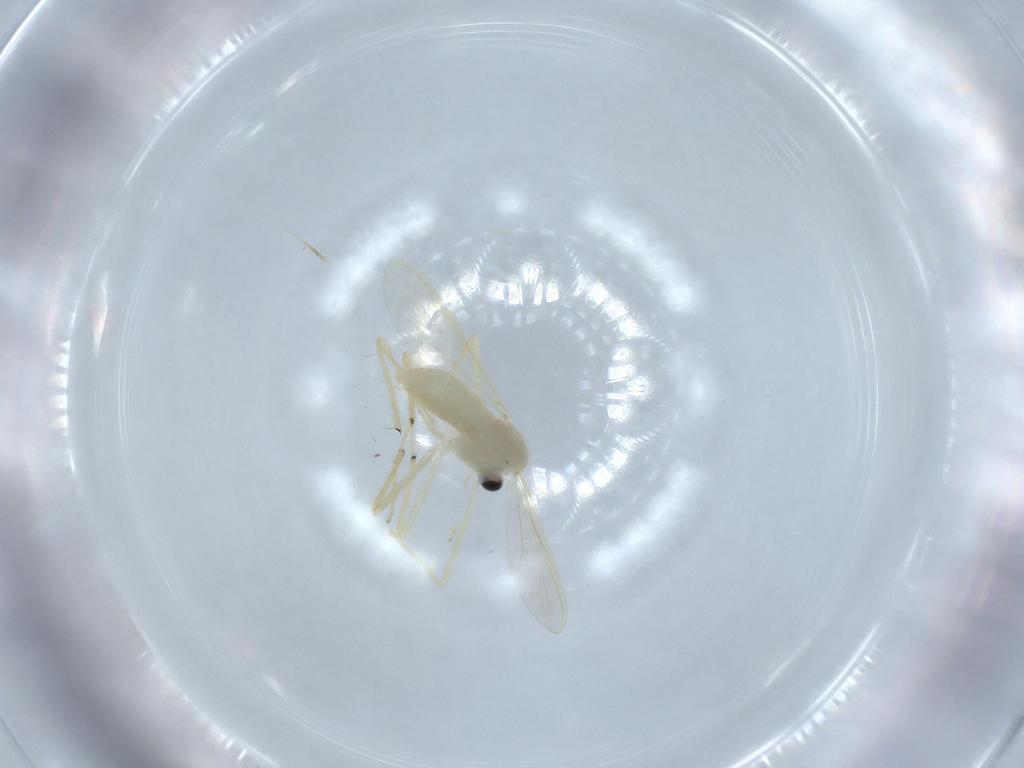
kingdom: Animalia
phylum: Arthropoda
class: Insecta
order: Diptera
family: Chironomidae
